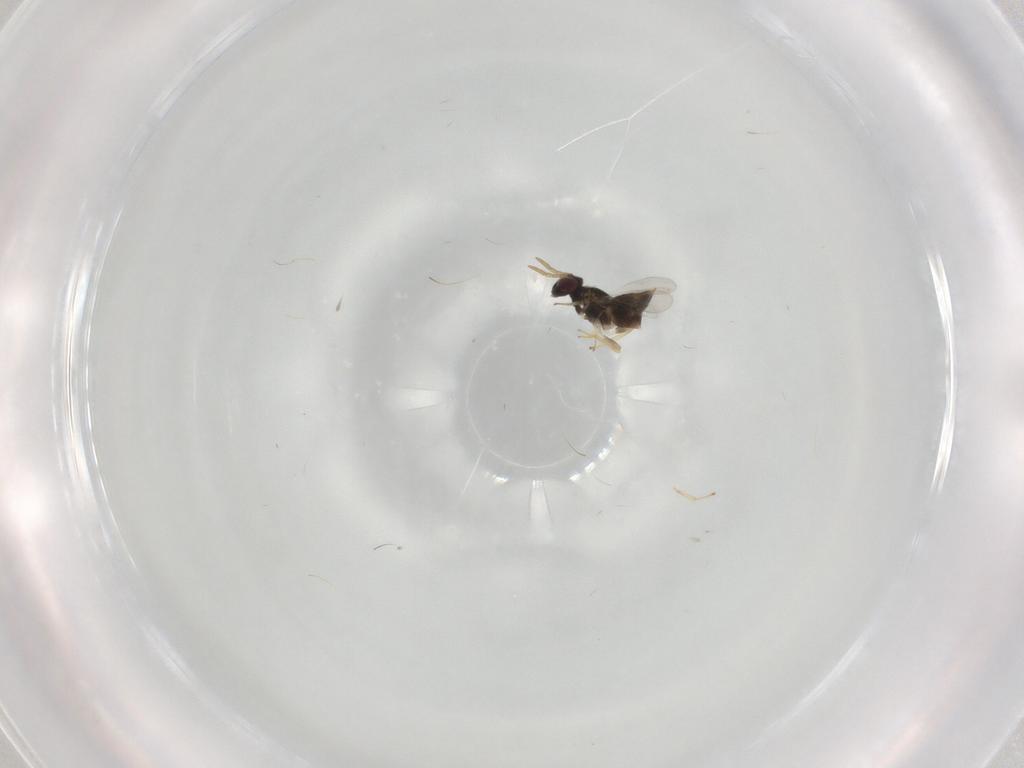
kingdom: Animalia
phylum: Arthropoda
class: Insecta
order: Hymenoptera
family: Aphelinidae
